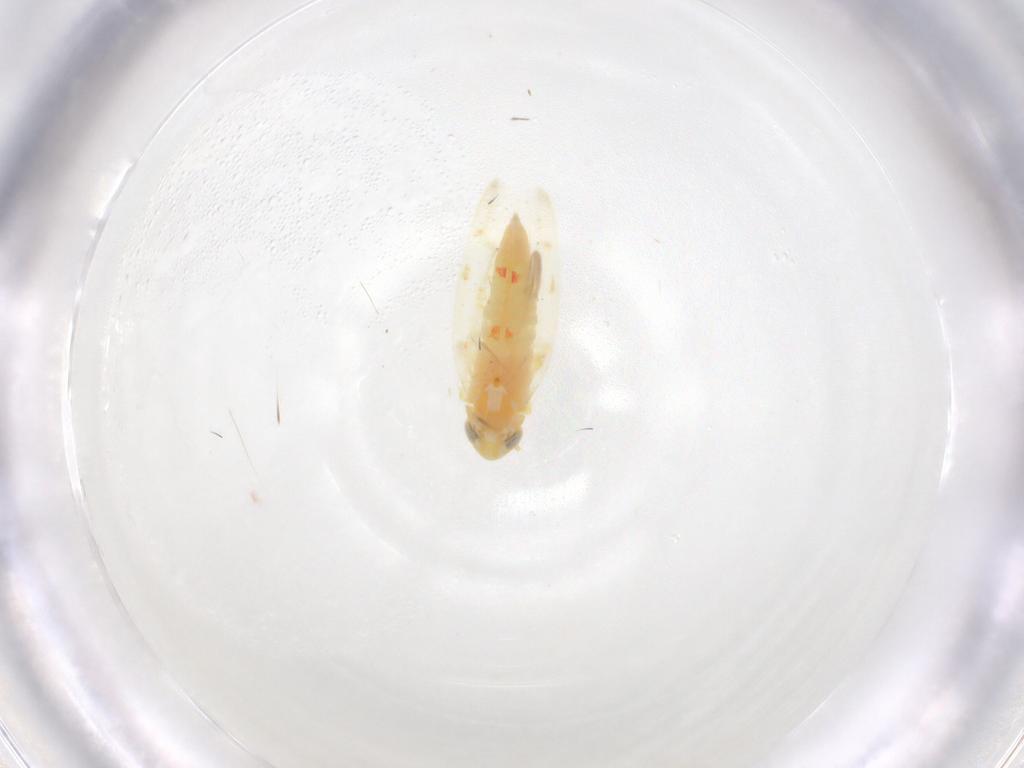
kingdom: Animalia
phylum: Arthropoda
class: Insecta
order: Hemiptera
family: Cicadellidae
